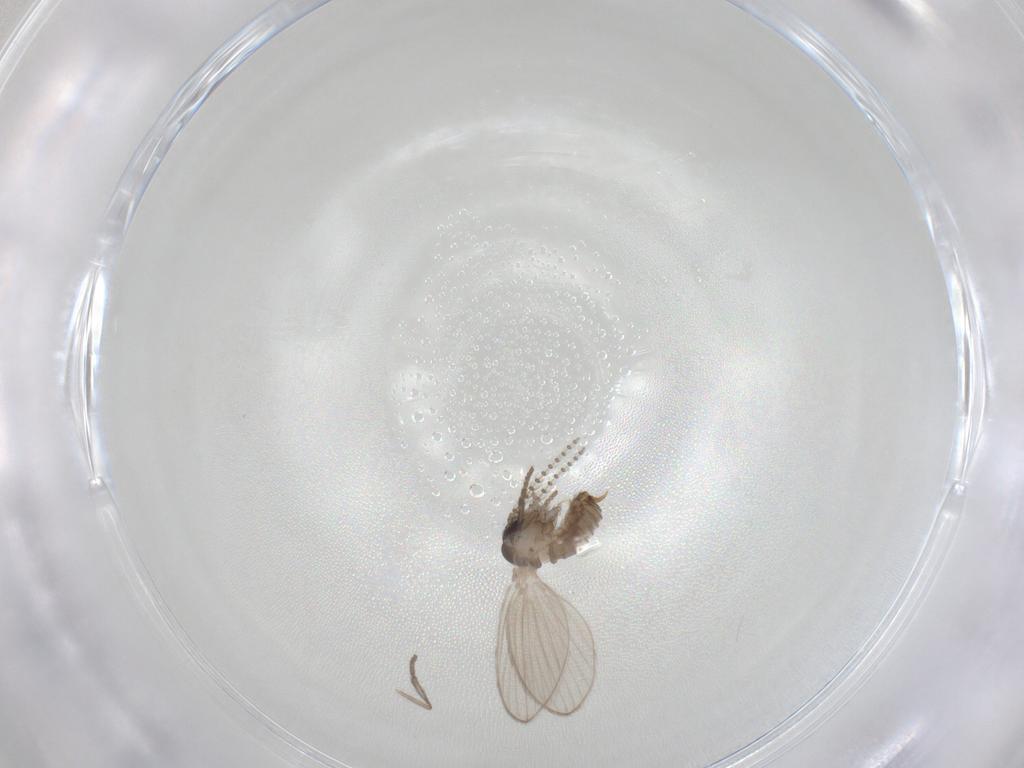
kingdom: Animalia
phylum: Arthropoda
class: Insecta
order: Diptera
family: Psychodidae
